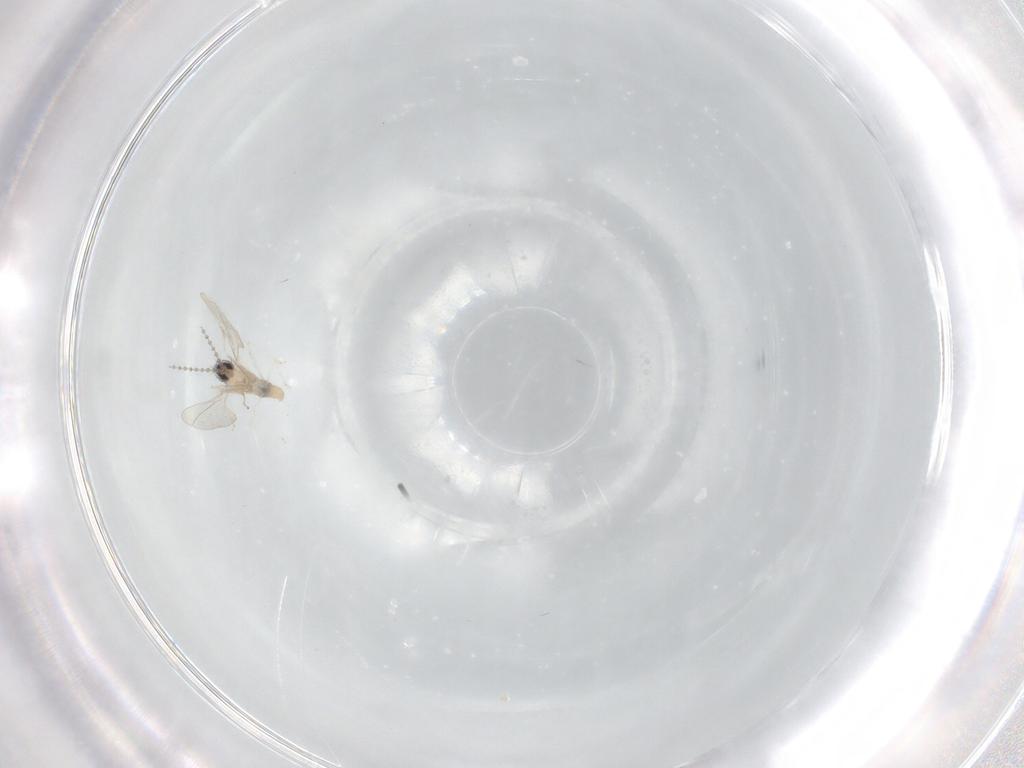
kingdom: Animalia
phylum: Arthropoda
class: Insecta
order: Diptera
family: Cecidomyiidae
